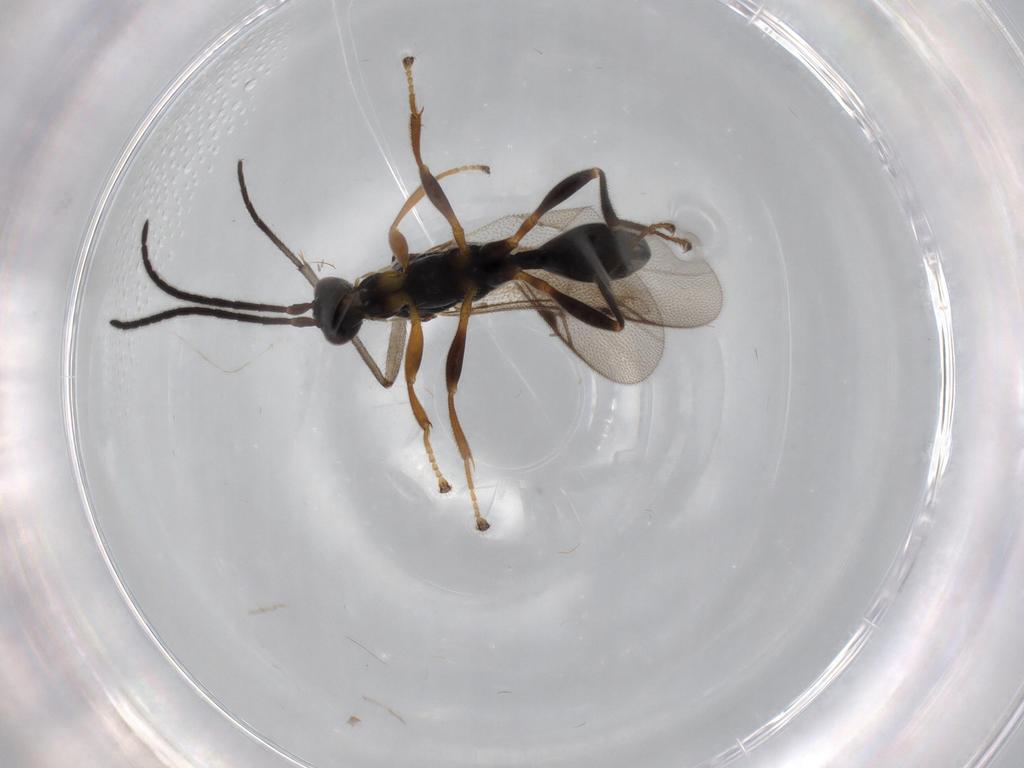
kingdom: Animalia
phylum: Arthropoda
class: Insecta
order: Hymenoptera
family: Proctotrupidae
